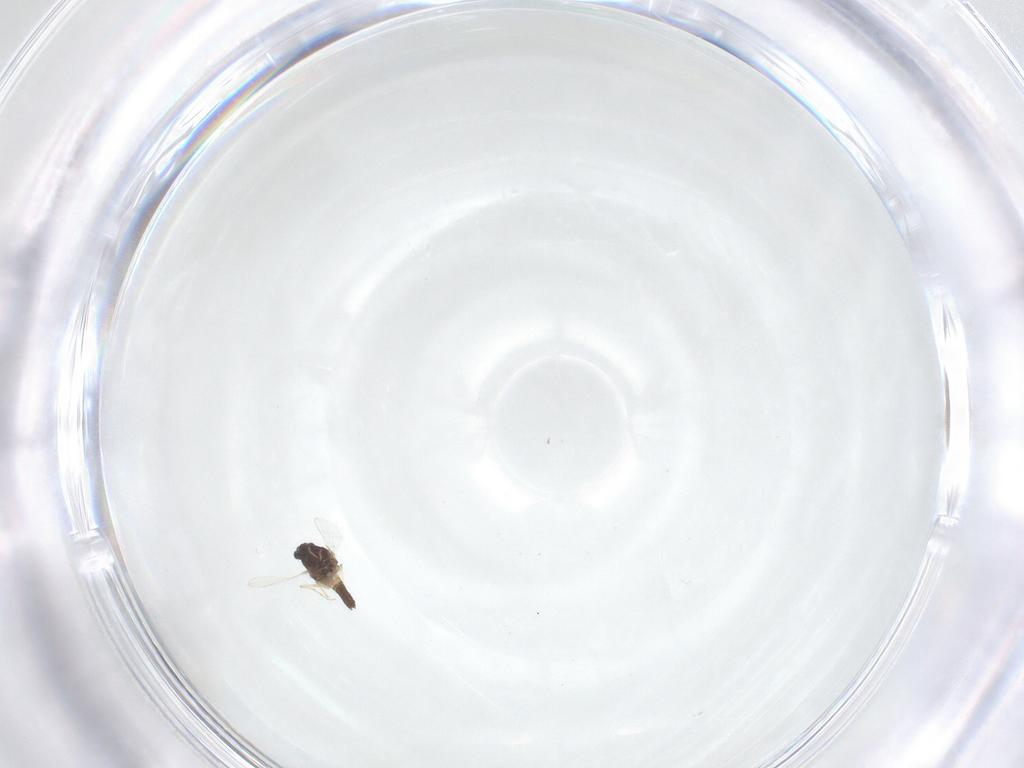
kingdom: Animalia
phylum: Arthropoda
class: Insecta
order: Diptera
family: Chironomidae
